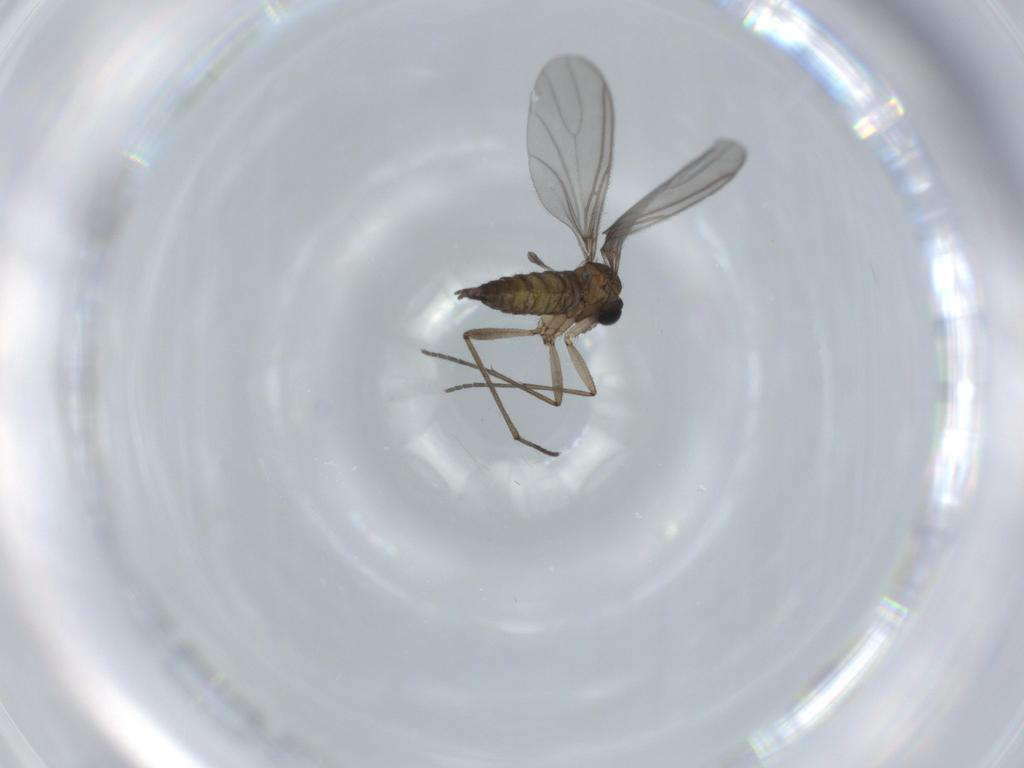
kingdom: Animalia
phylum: Arthropoda
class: Insecta
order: Diptera
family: Sciaridae
